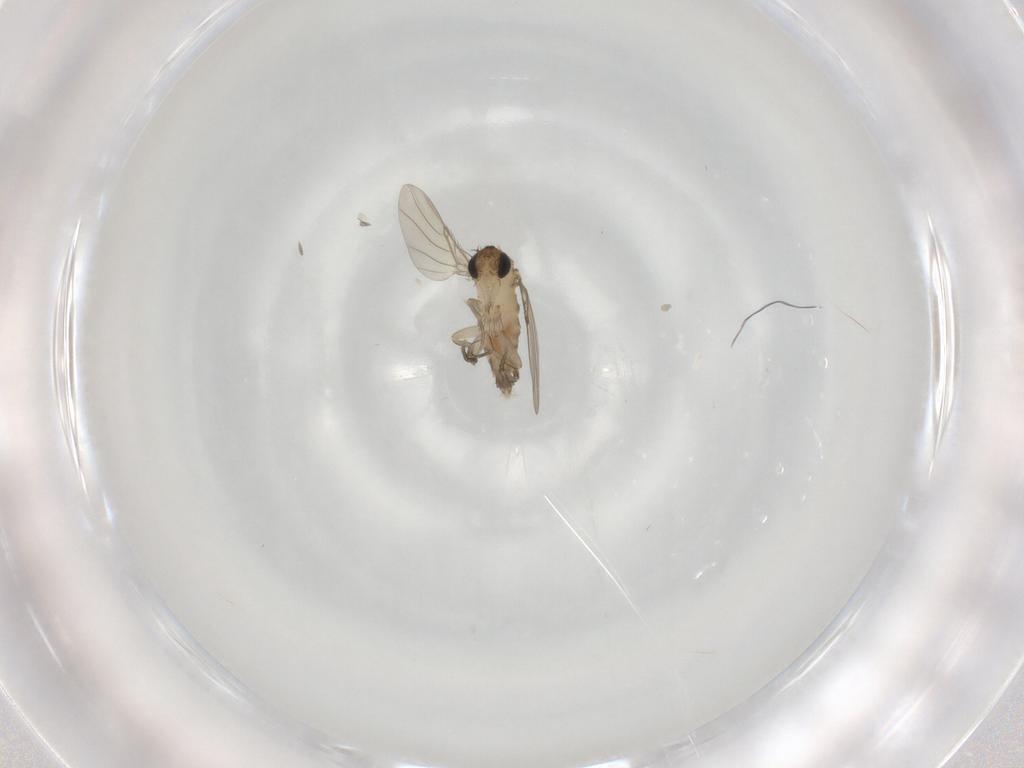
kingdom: Animalia
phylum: Arthropoda
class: Insecta
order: Diptera
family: Phoridae
